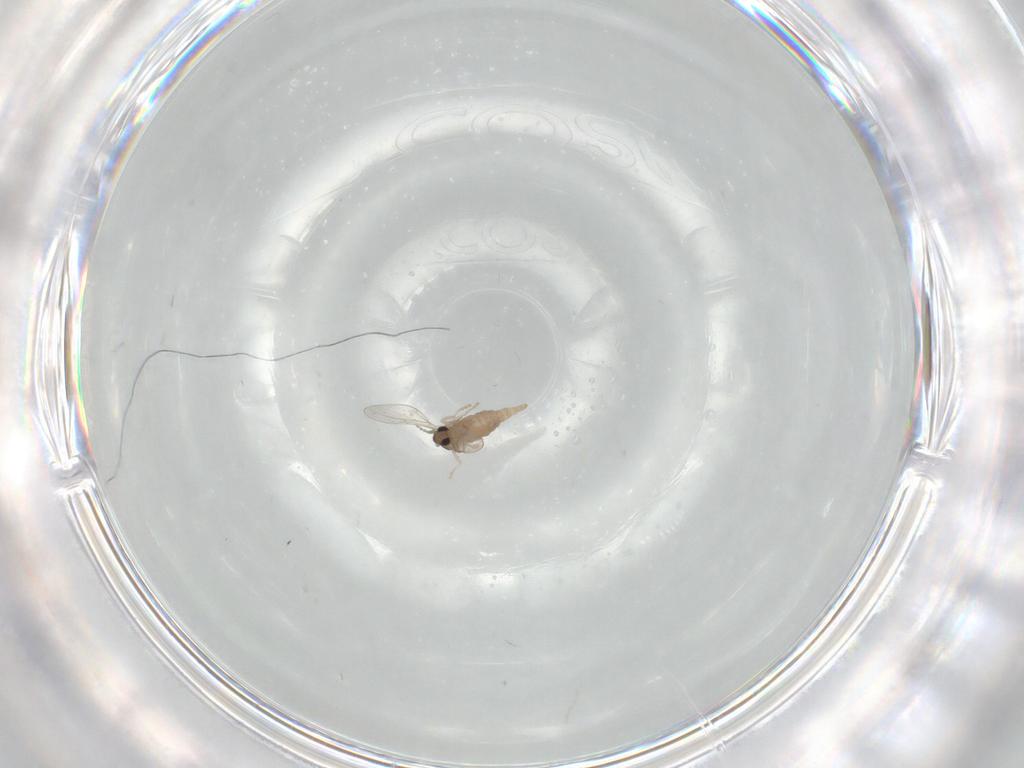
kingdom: Animalia
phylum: Arthropoda
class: Insecta
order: Diptera
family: Cecidomyiidae
